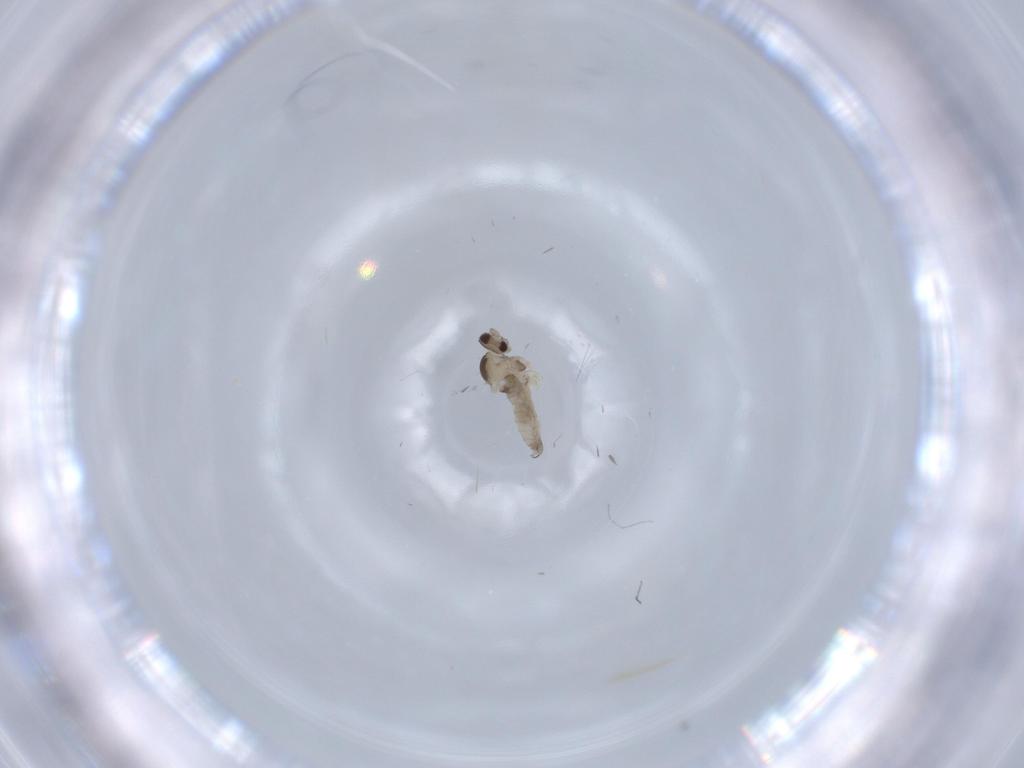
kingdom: Animalia
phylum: Arthropoda
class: Insecta
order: Diptera
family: Cecidomyiidae
